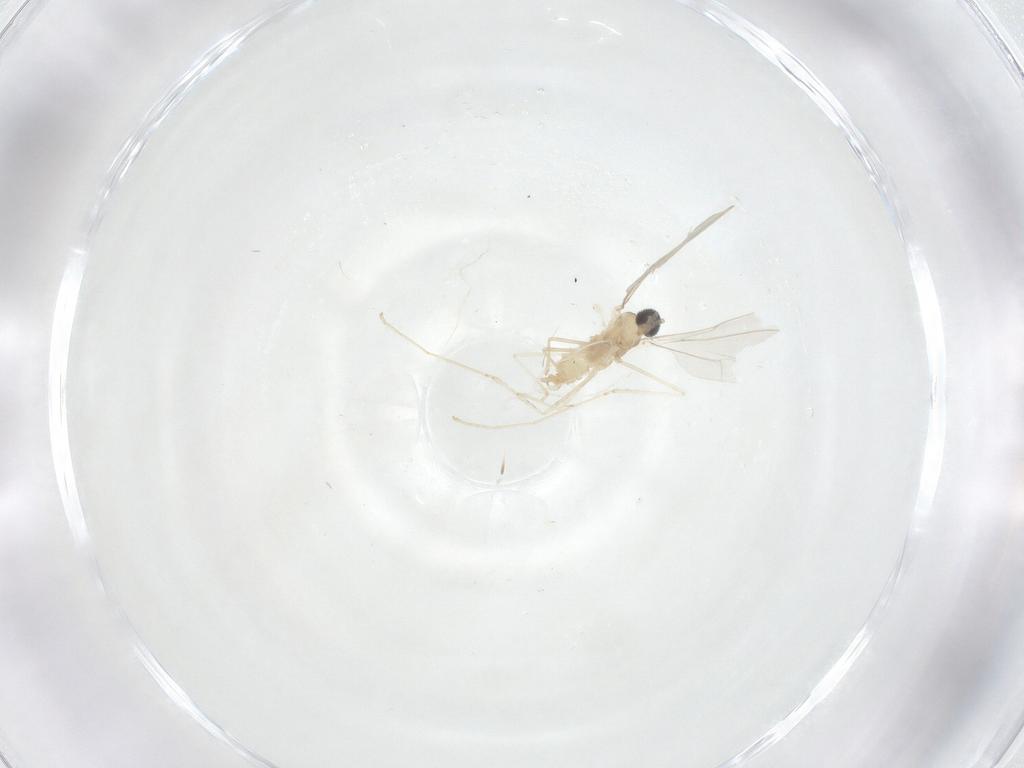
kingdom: Animalia
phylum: Arthropoda
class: Insecta
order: Diptera
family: Cecidomyiidae
